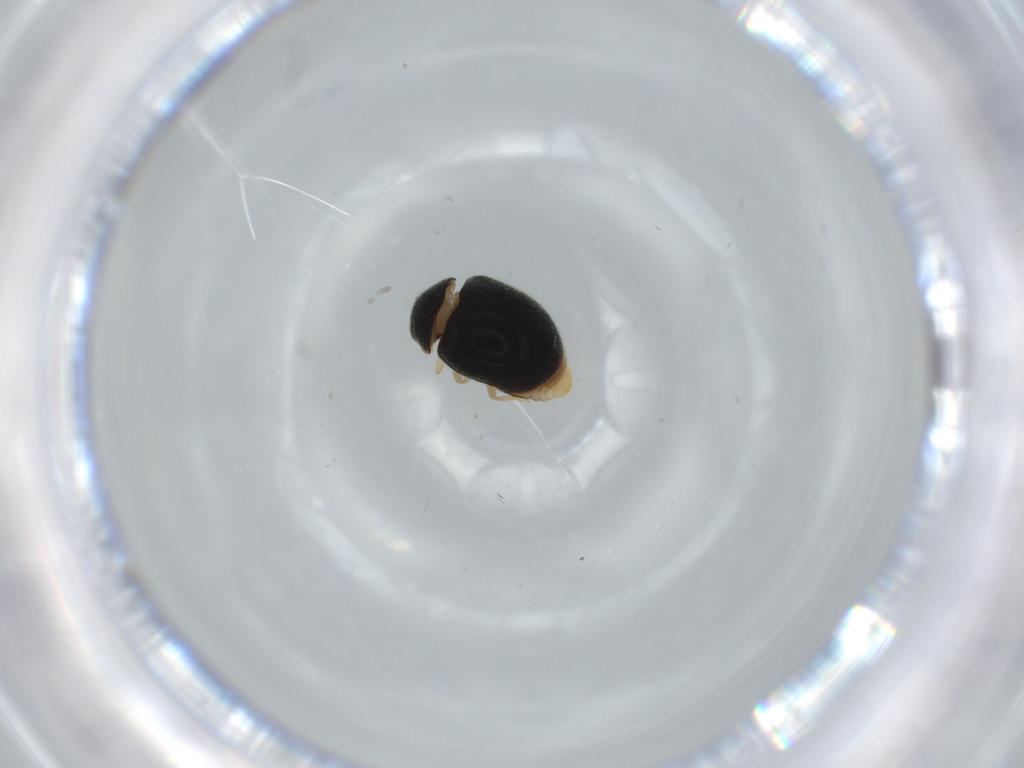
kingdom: Animalia
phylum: Arthropoda
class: Insecta
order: Coleoptera
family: Coccinellidae
